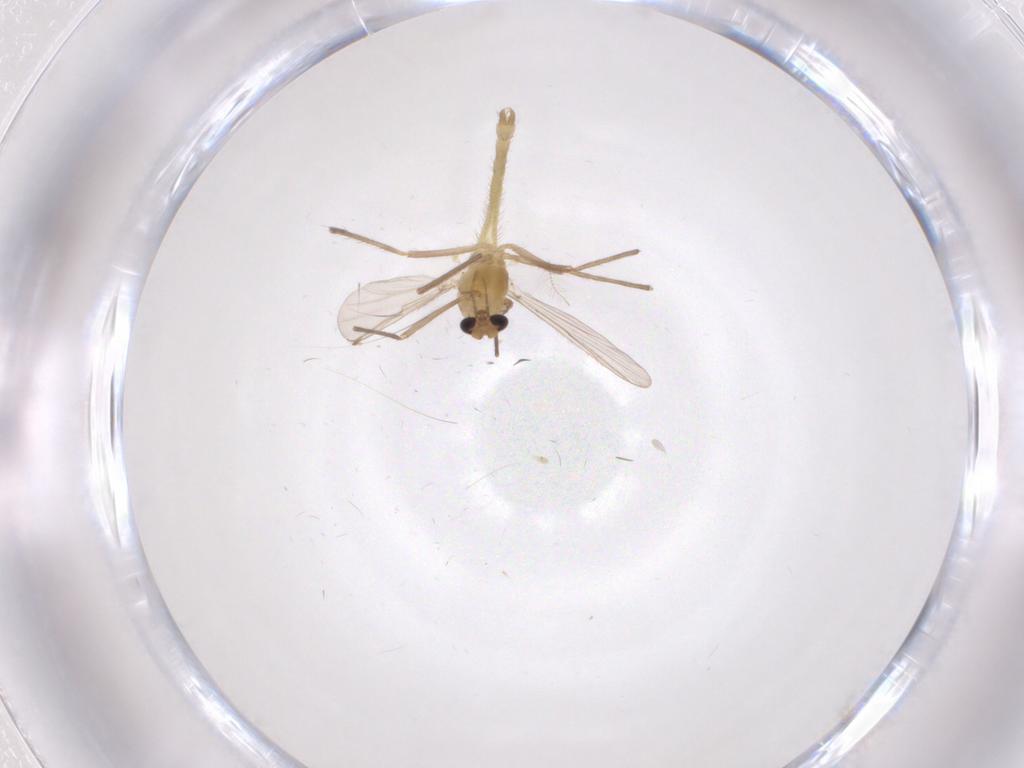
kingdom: Animalia
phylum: Arthropoda
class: Insecta
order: Diptera
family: Chironomidae
